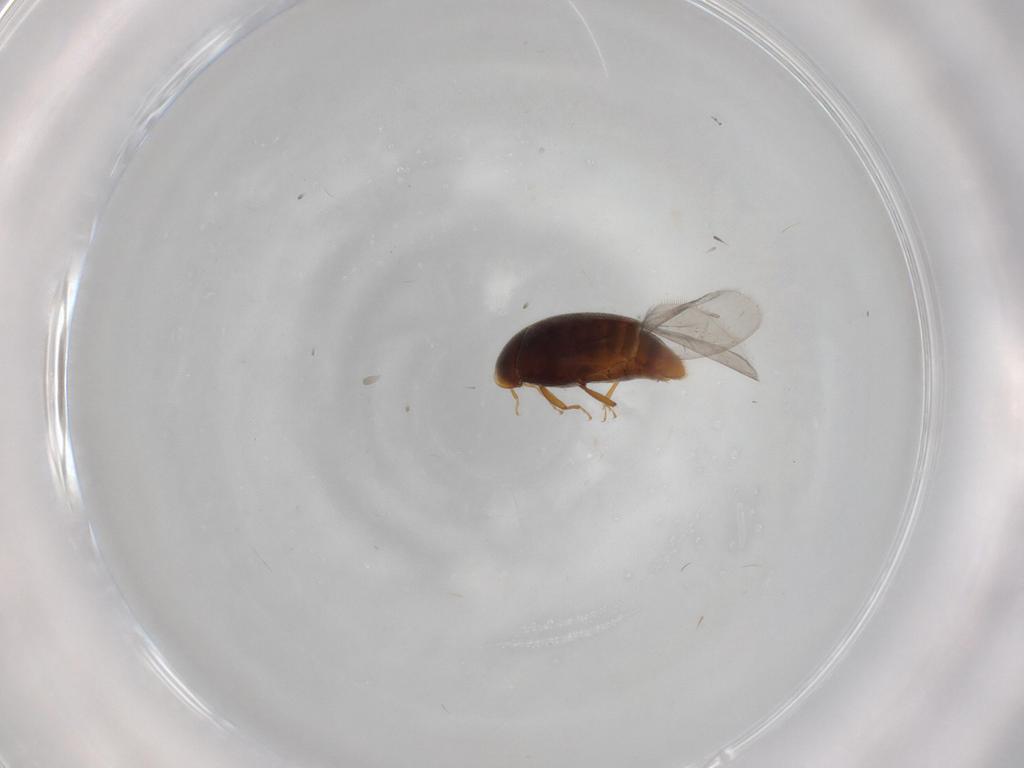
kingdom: Animalia
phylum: Arthropoda
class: Insecta
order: Coleoptera
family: Corylophidae
